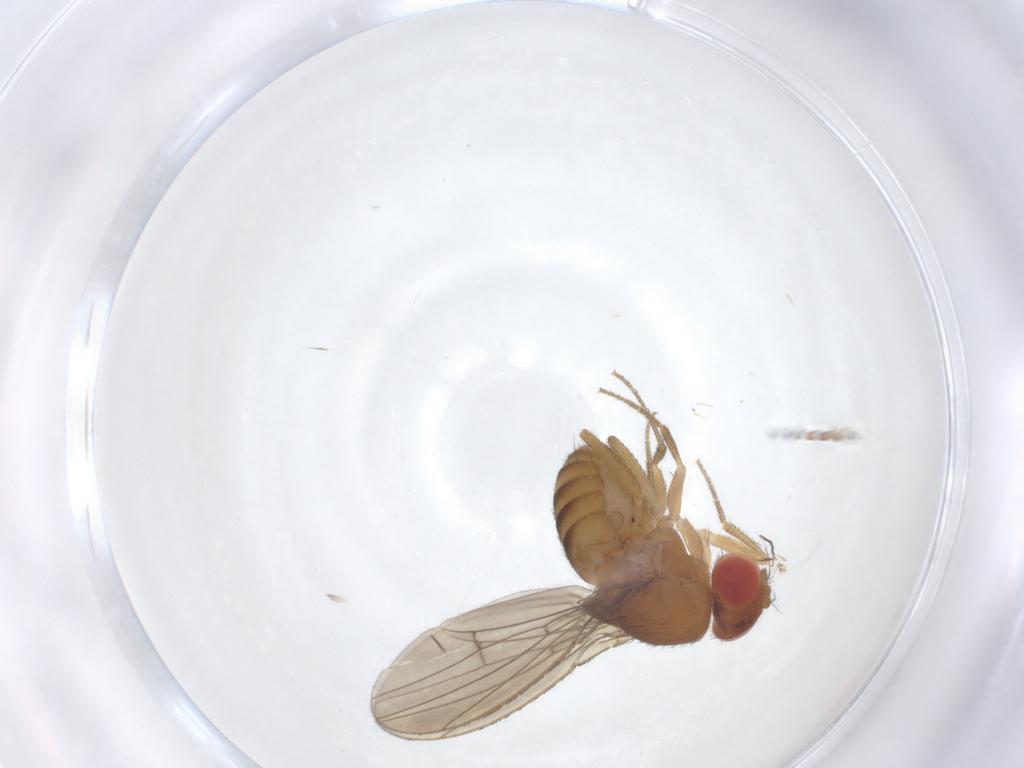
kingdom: Animalia
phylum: Arthropoda
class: Insecta
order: Diptera
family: Drosophilidae
